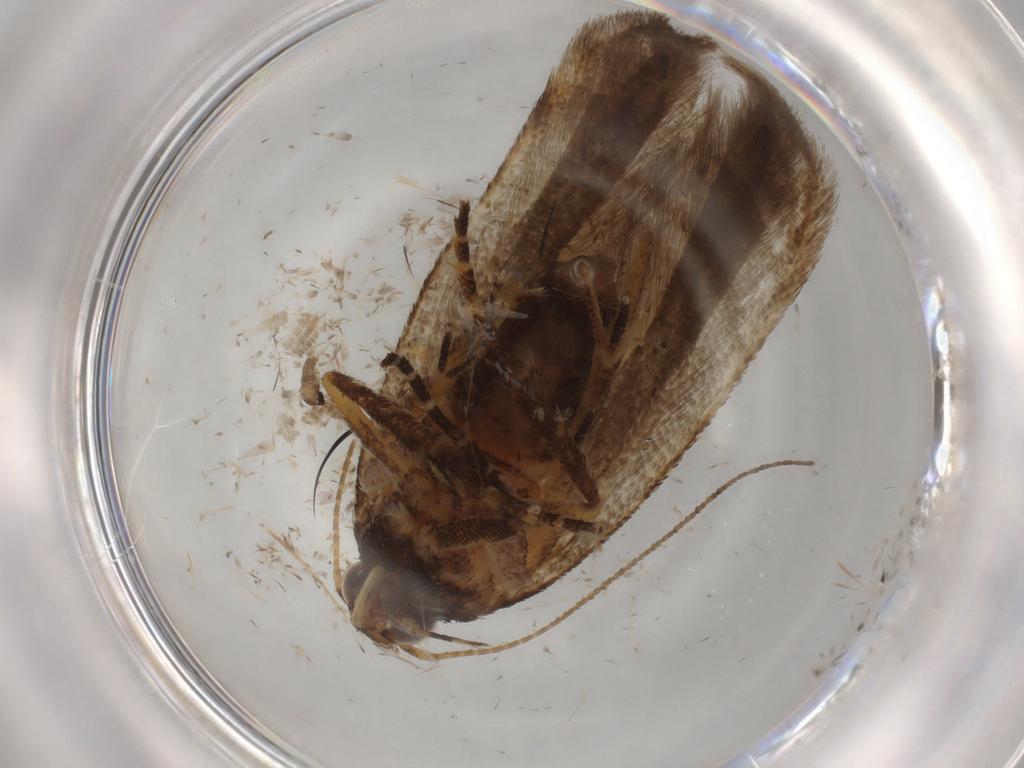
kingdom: Animalia
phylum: Arthropoda
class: Insecta
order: Lepidoptera
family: Gelechiidae
